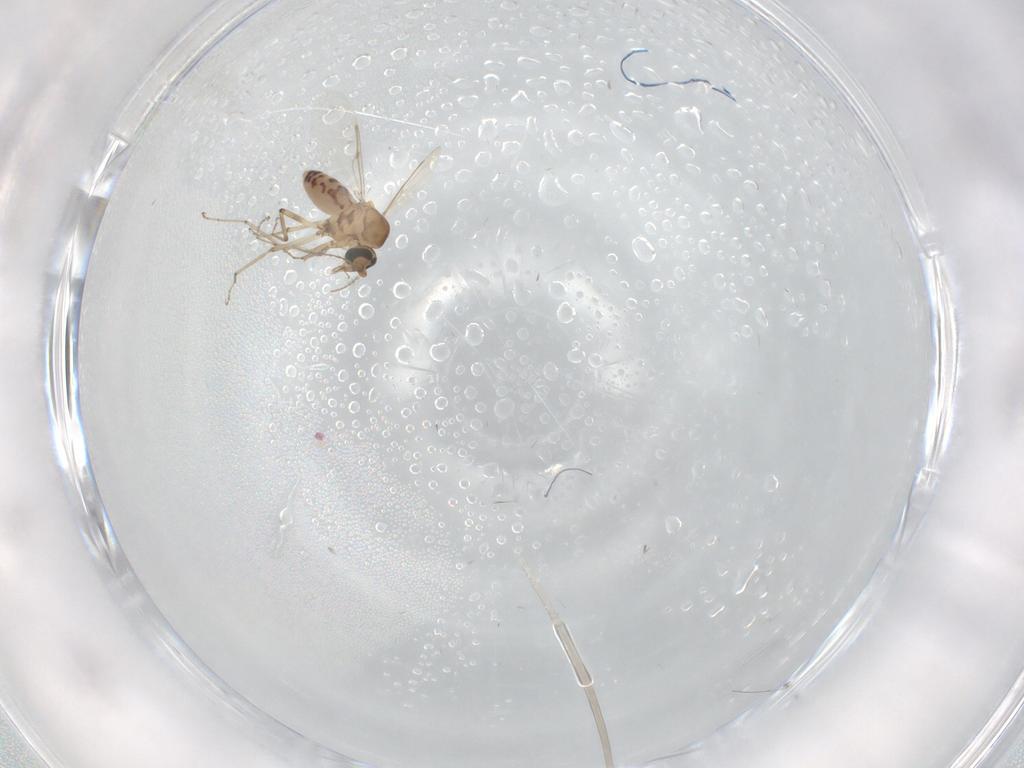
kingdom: Animalia
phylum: Arthropoda
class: Insecta
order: Diptera
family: Ceratopogonidae
